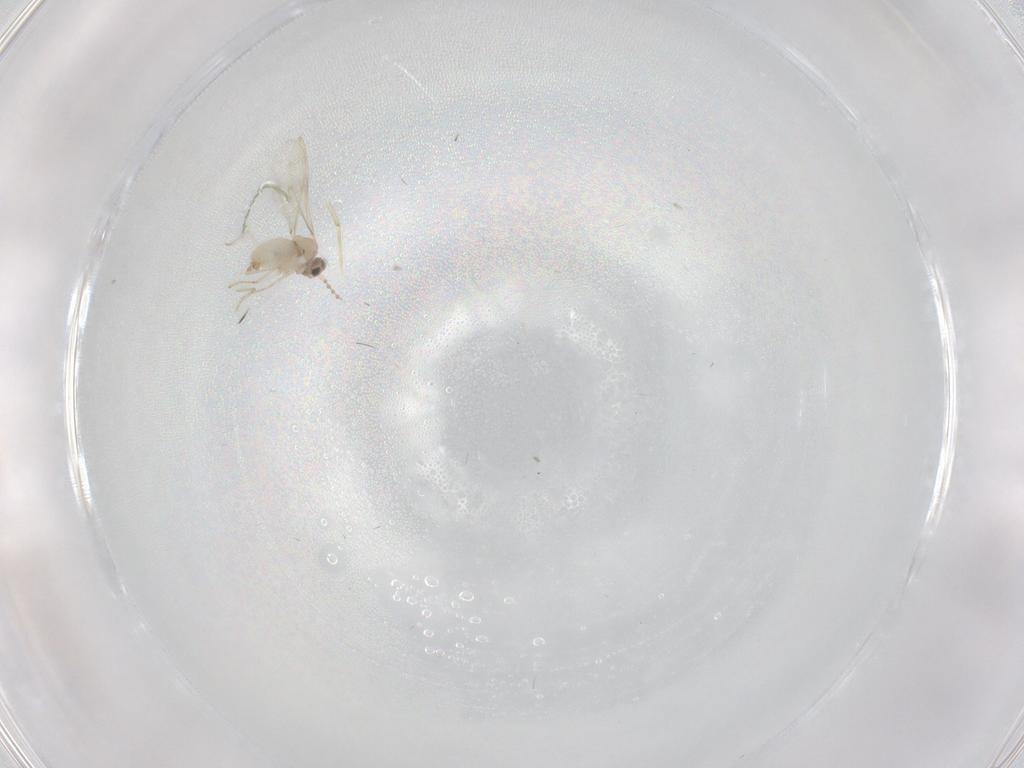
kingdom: Animalia
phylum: Arthropoda
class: Insecta
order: Diptera
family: Cecidomyiidae
